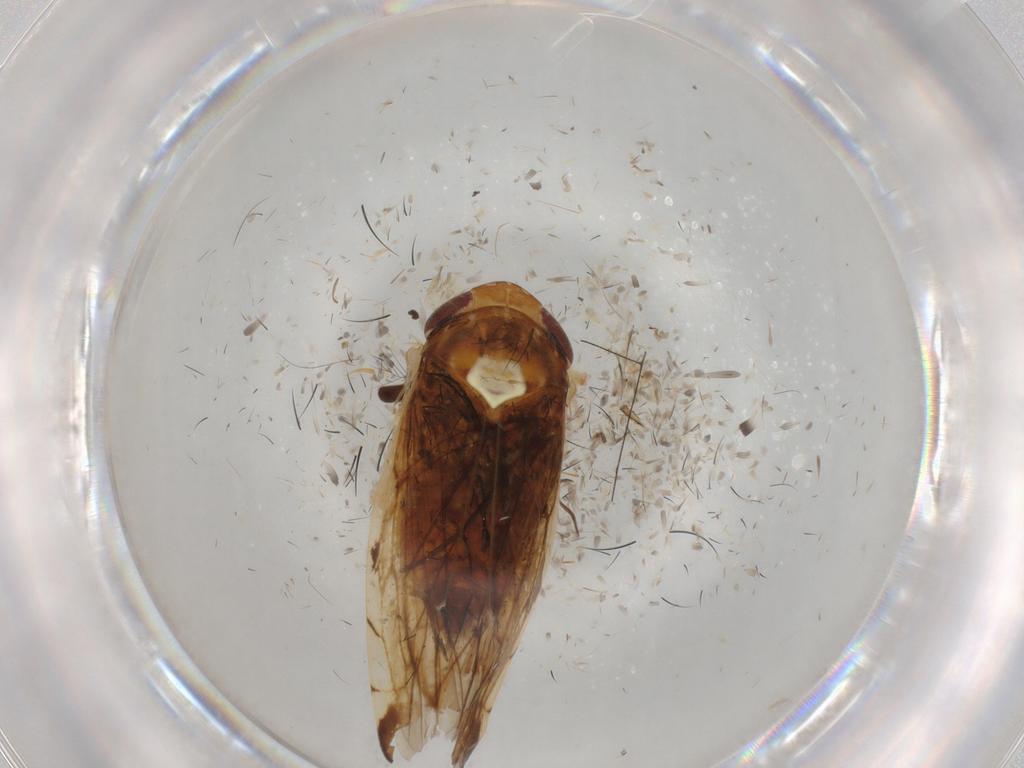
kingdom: Animalia
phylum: Arthropoda
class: Insecta
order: Hemiptera
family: Cicadellidae
